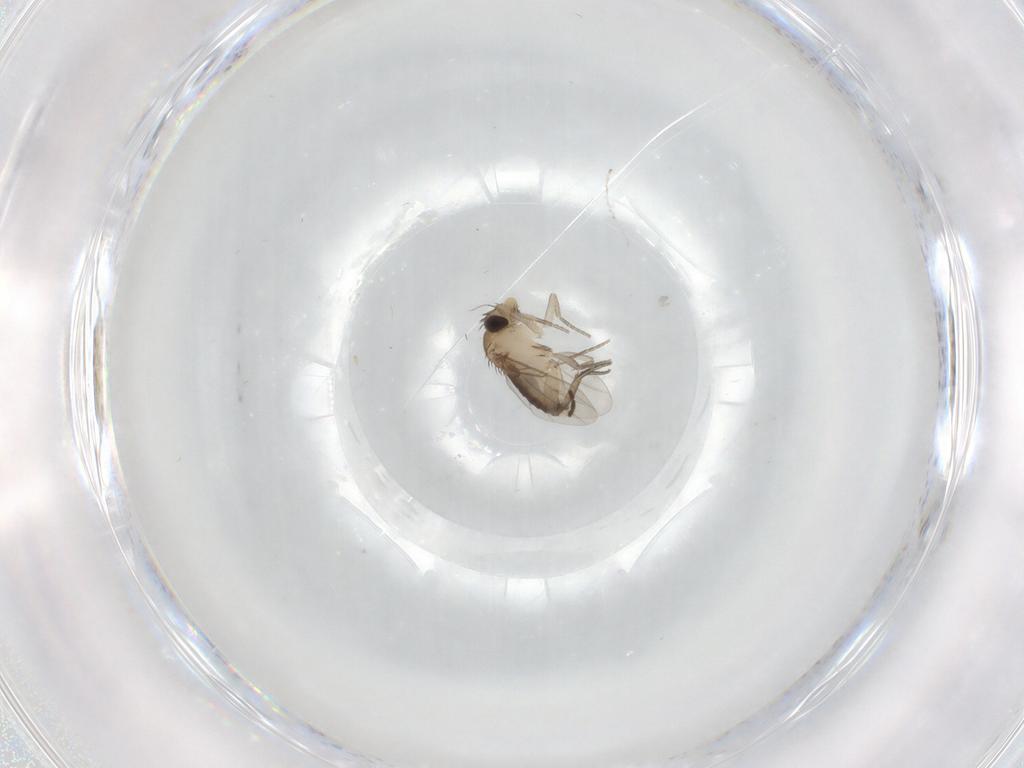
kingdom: Animalia
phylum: Arthropoda
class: Insecta
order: Diptera
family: Phoridae
